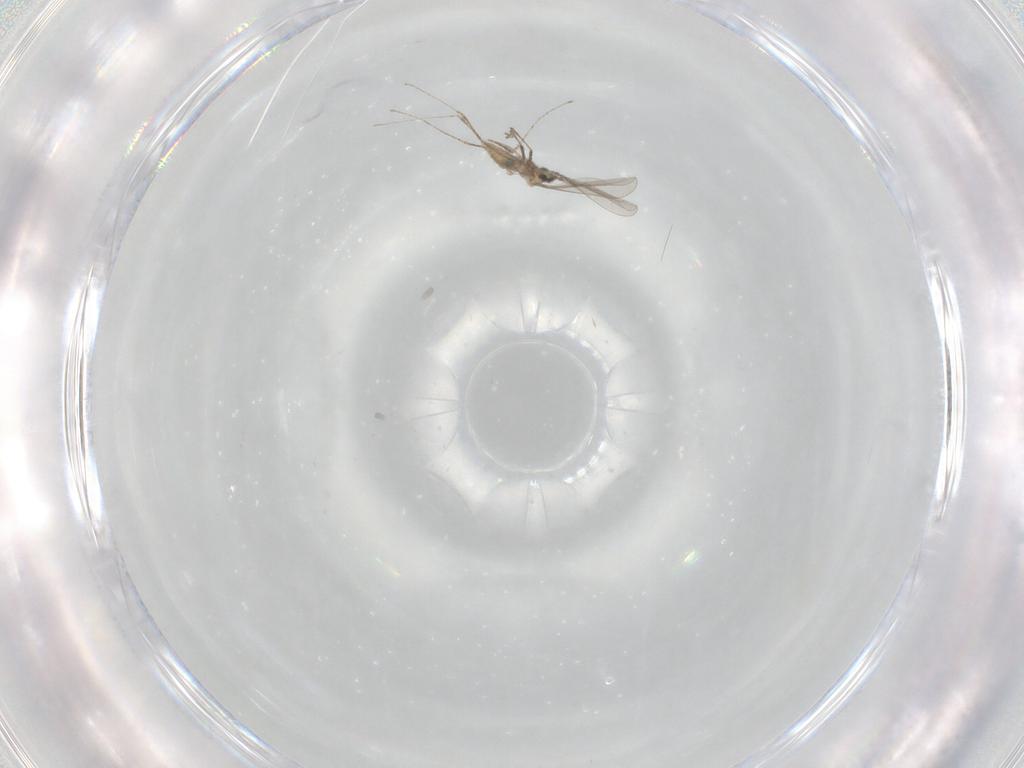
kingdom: Animalia
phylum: Arthropoda
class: Insecta
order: Diptera
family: Cecidomyiidae
